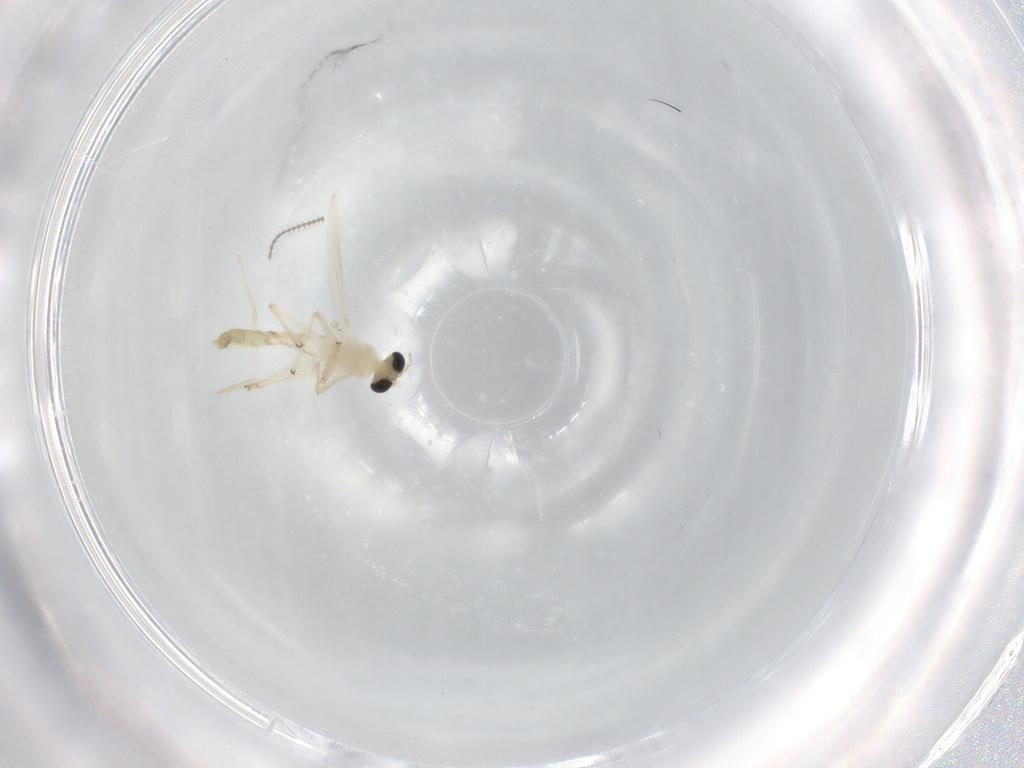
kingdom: Animalia
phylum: Arthropoda
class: Insecta
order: Diptera
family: Chironomidae
